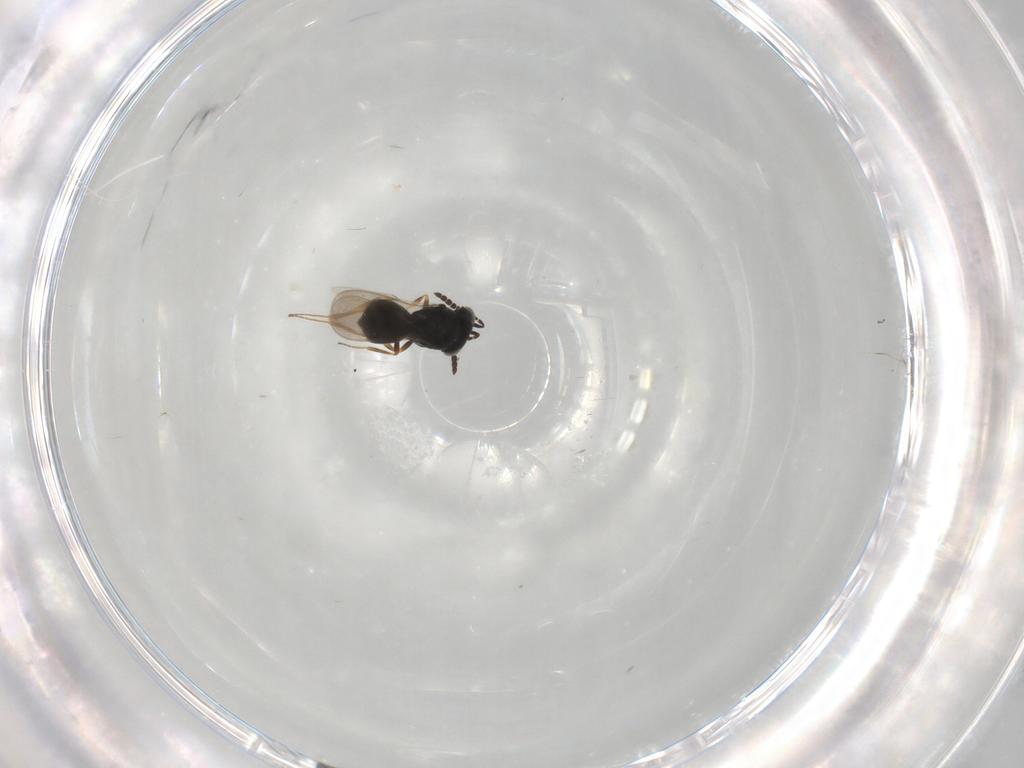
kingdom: Animalia
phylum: Arthropoda
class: Insecta
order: Hymenoptera
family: Scelionidae
